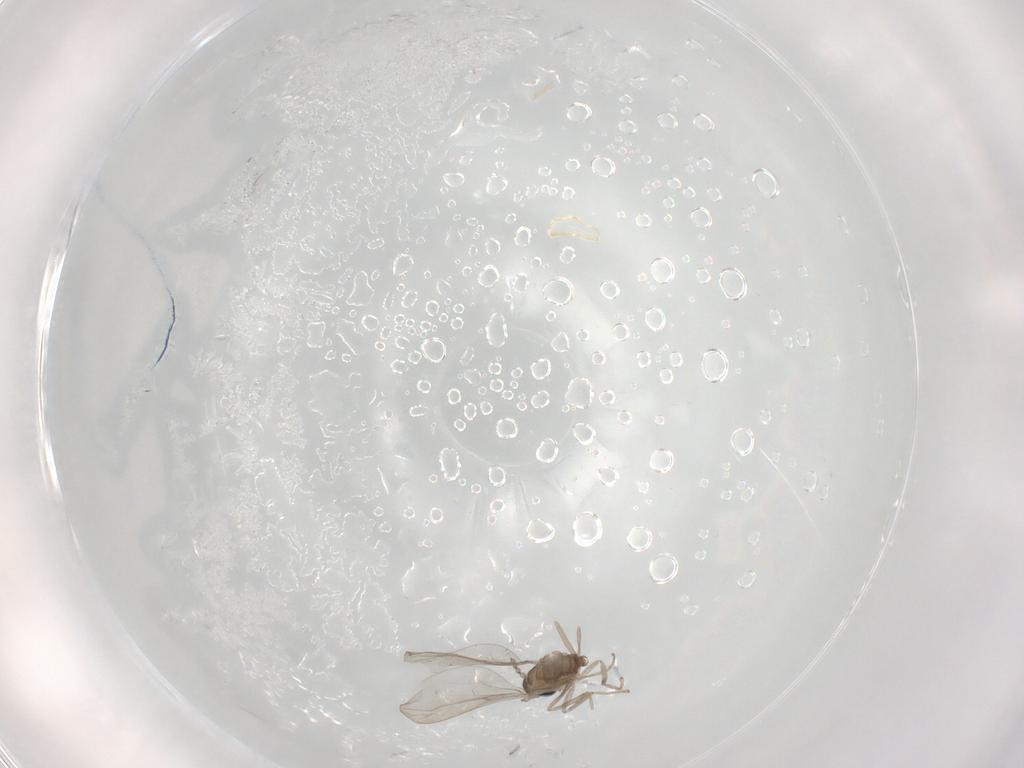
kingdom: Animalia
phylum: Arthropoda
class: Insecta
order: Diptera
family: Cecidomyiidae
